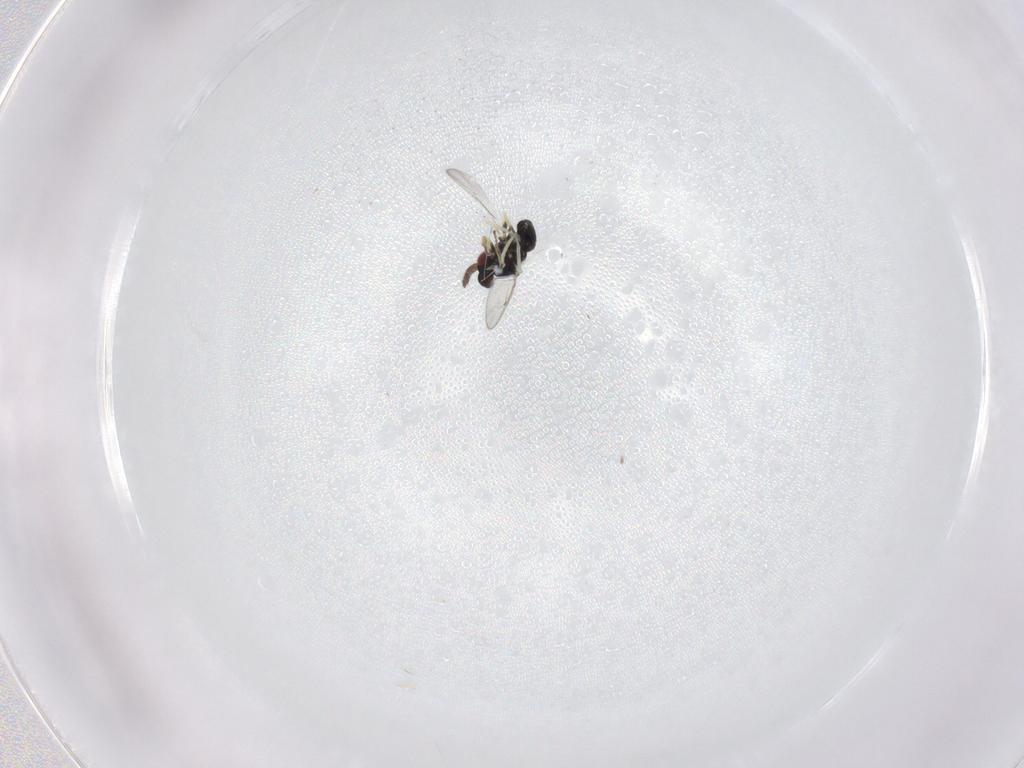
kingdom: Animalia
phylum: Arthropoda
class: Insecta
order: Hymenoptera
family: Eulophidae
